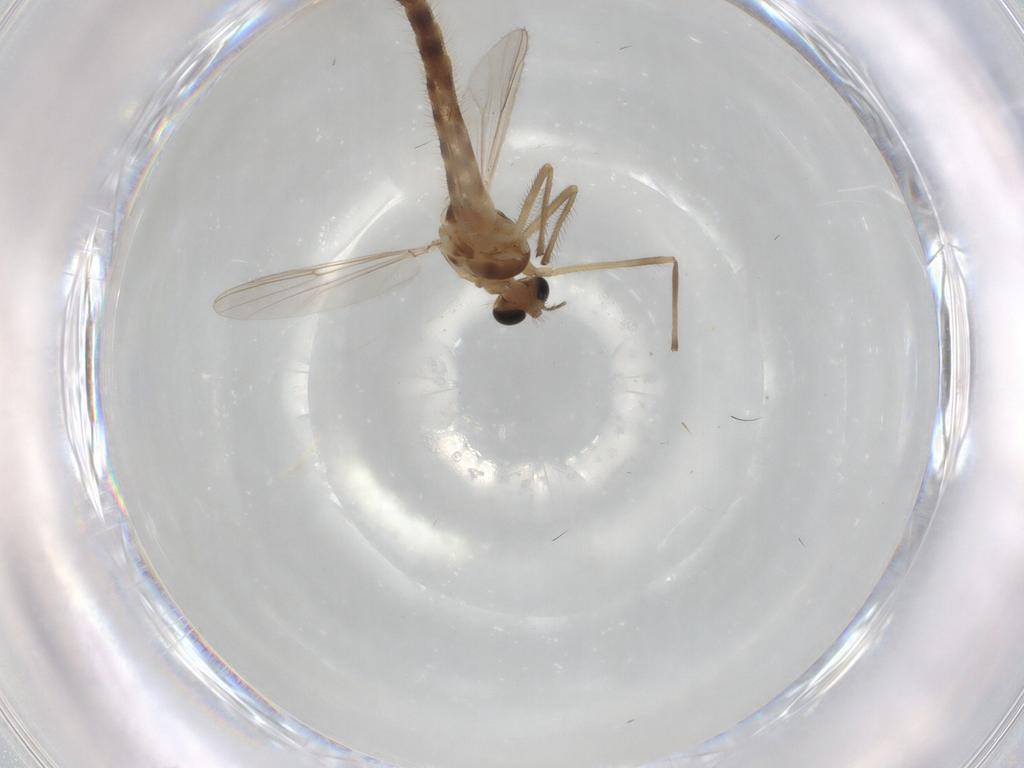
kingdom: Animalia
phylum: Arthropoda
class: Insecta
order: Diptera
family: Chironomidae
